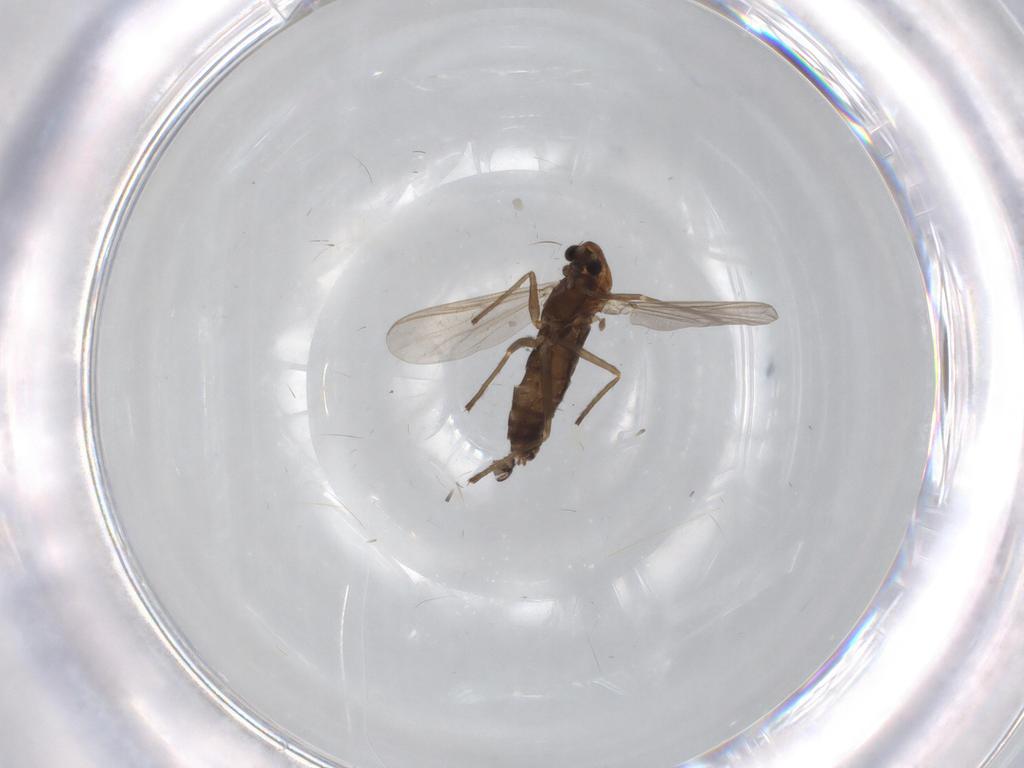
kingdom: Animalia
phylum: Arthropoda
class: Insecta
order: Diptera
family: Chironomidae
